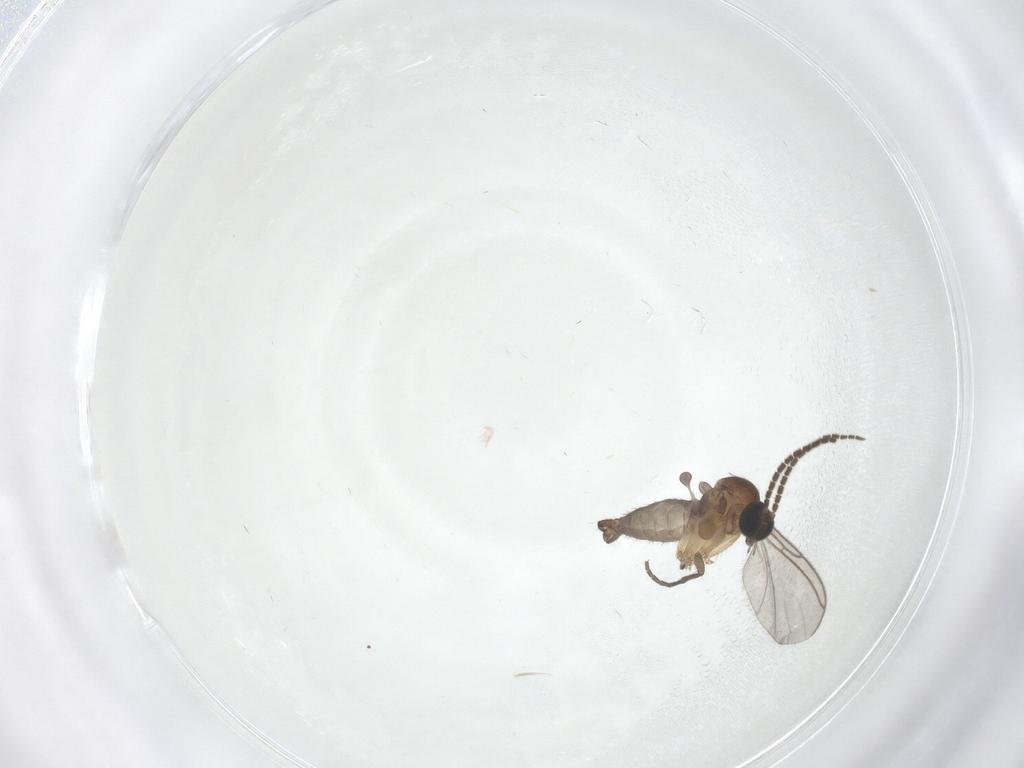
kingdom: Animalia
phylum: Arthropoda
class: Insecta
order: Diptera
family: Sciaridae
